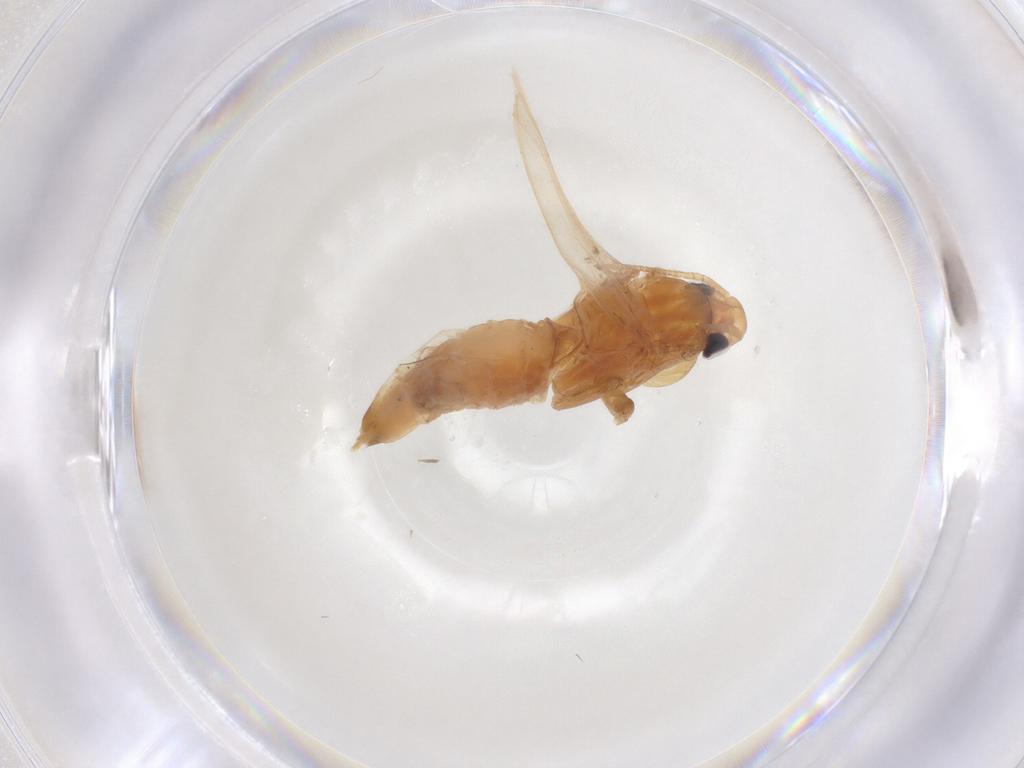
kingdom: Animalia
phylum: Arthropoda
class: Insecta
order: Lepidoptera
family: Tineidae
